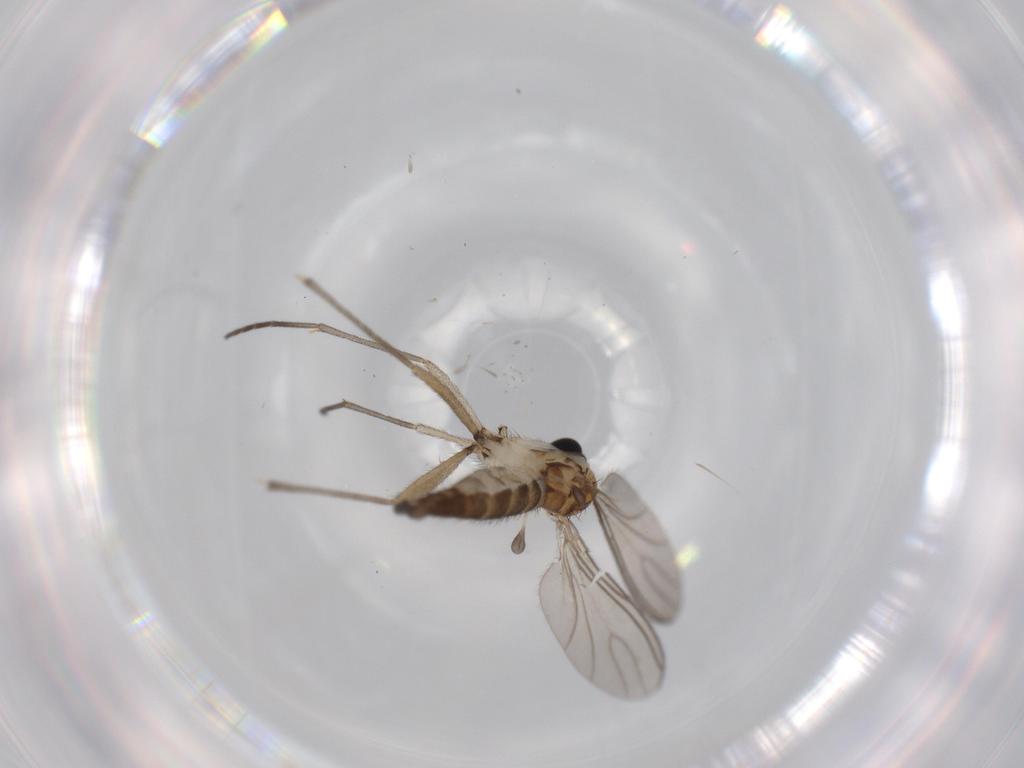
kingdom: Animalia
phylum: Arthropoda
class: Insecta
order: Diptera
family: Sciaridae
